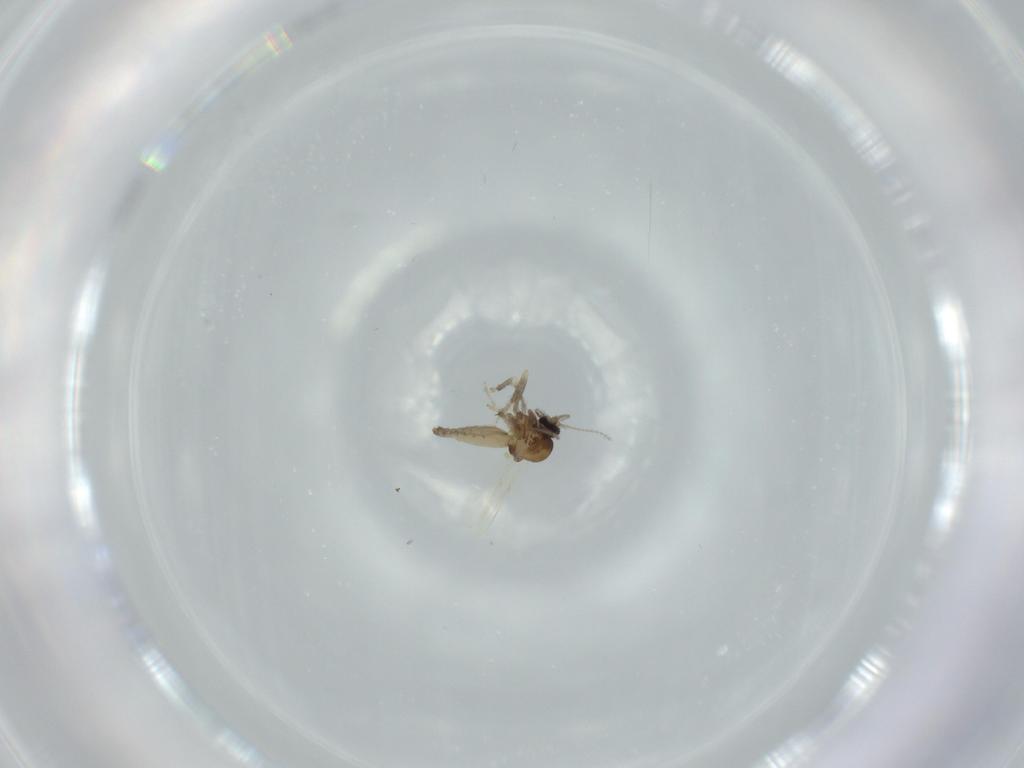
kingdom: Animalia
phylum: Arthropoda
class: Insecta
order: Diptera
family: Ceratopogonidae
